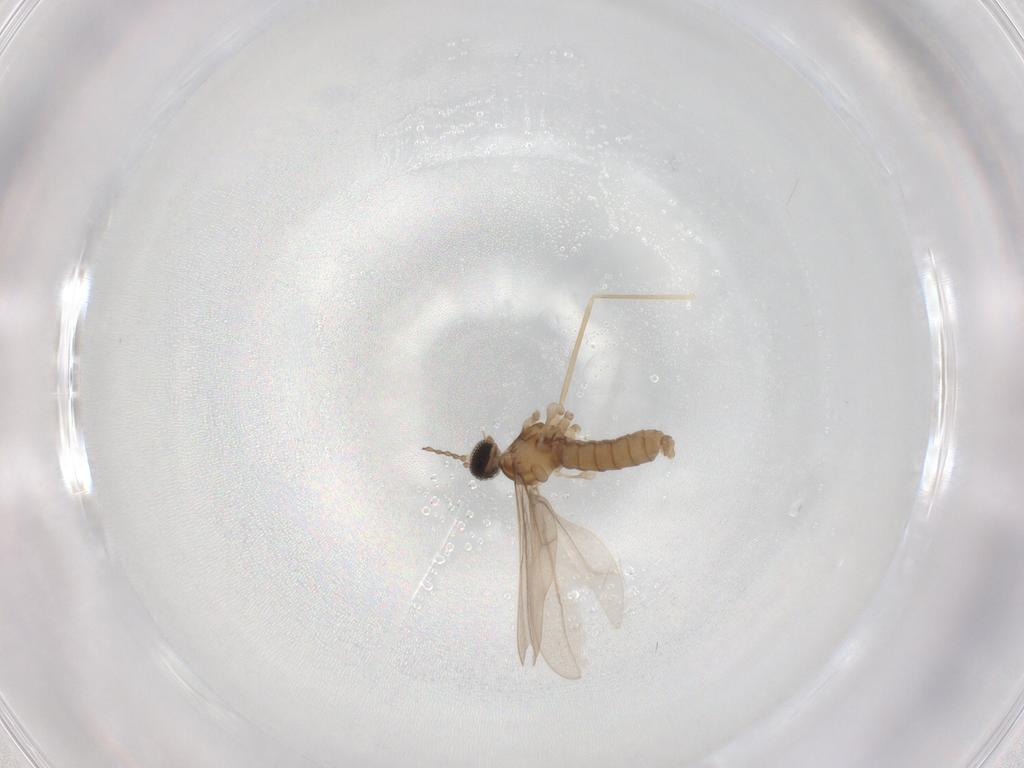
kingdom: Animalia
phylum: Arthropoda
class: Insecta
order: Diptera
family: Cecidomyiidae
